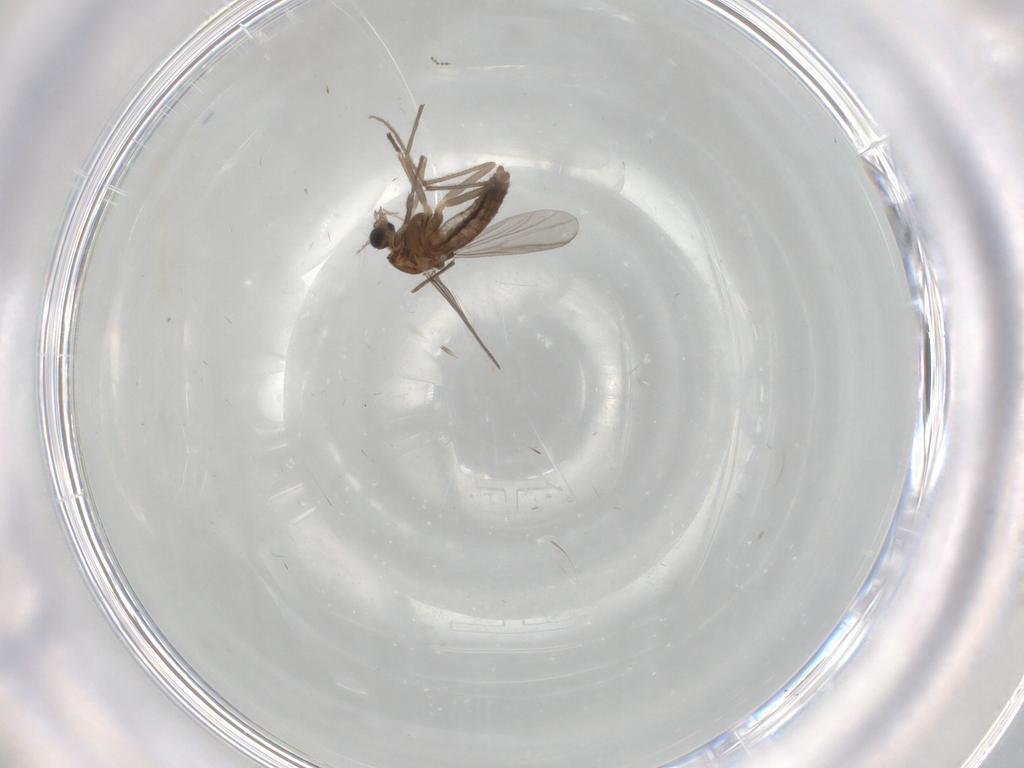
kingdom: Animalia
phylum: Arthropoda
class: Insecta
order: Diptera
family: Chironomidae
